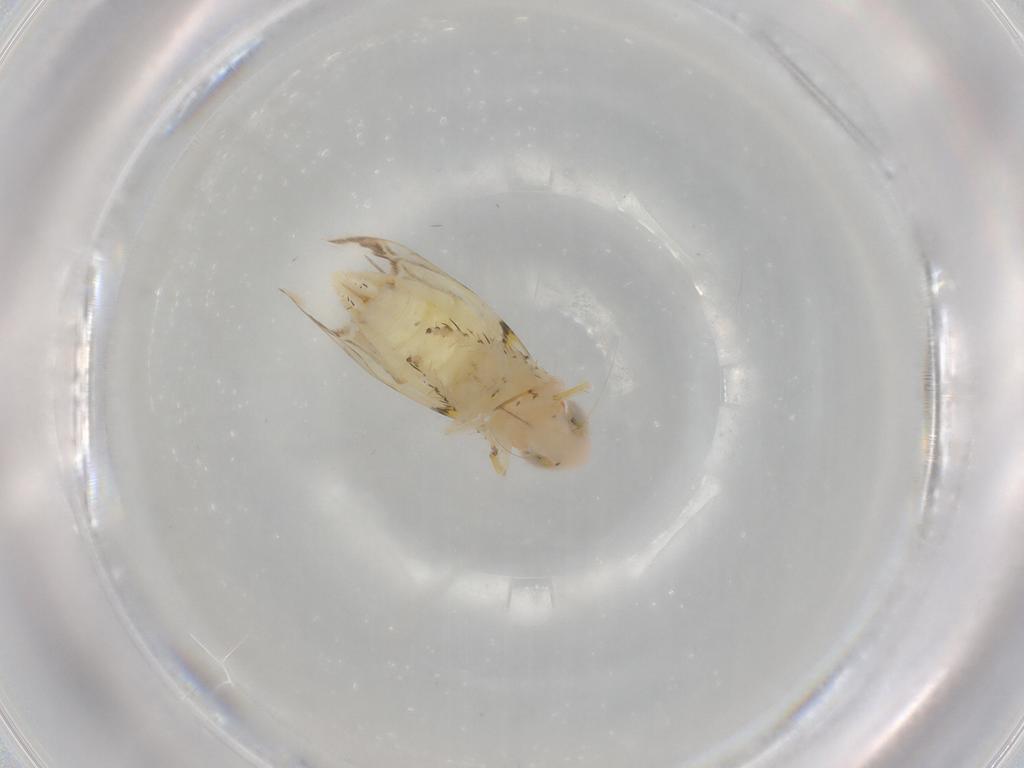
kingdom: Animalia
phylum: Arthropoda
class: Insecta
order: Hemiptera
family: Cicadellidae
